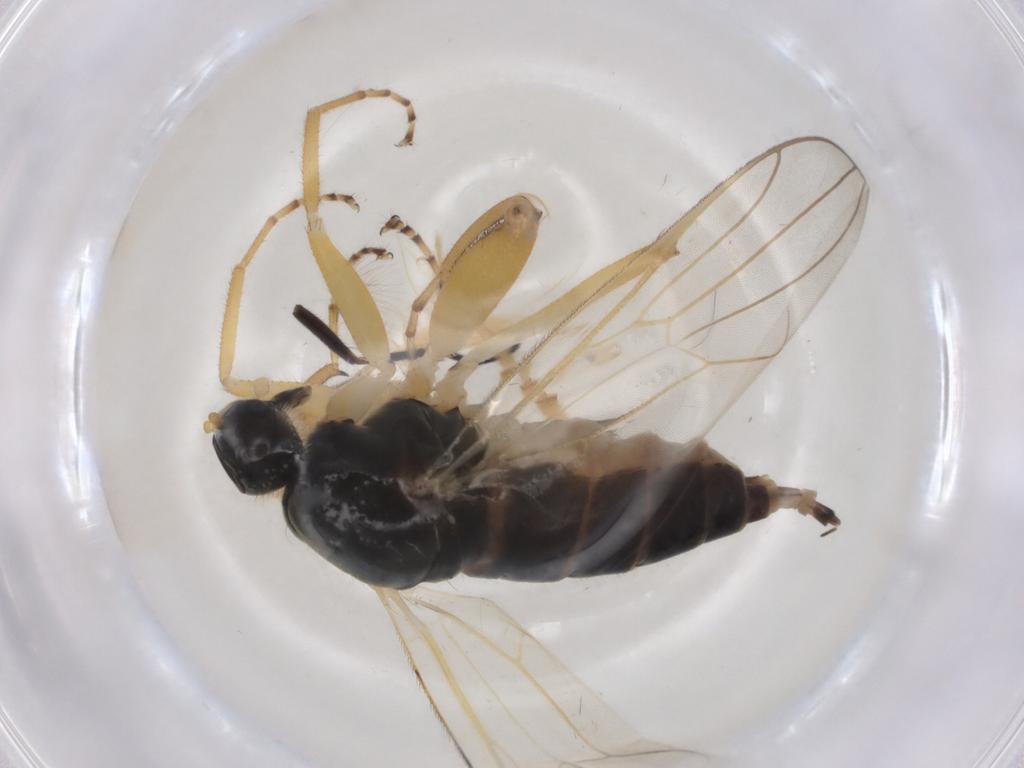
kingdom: Animalia
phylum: Arthropoda
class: Insecta
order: Diptera
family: Hybotidae
